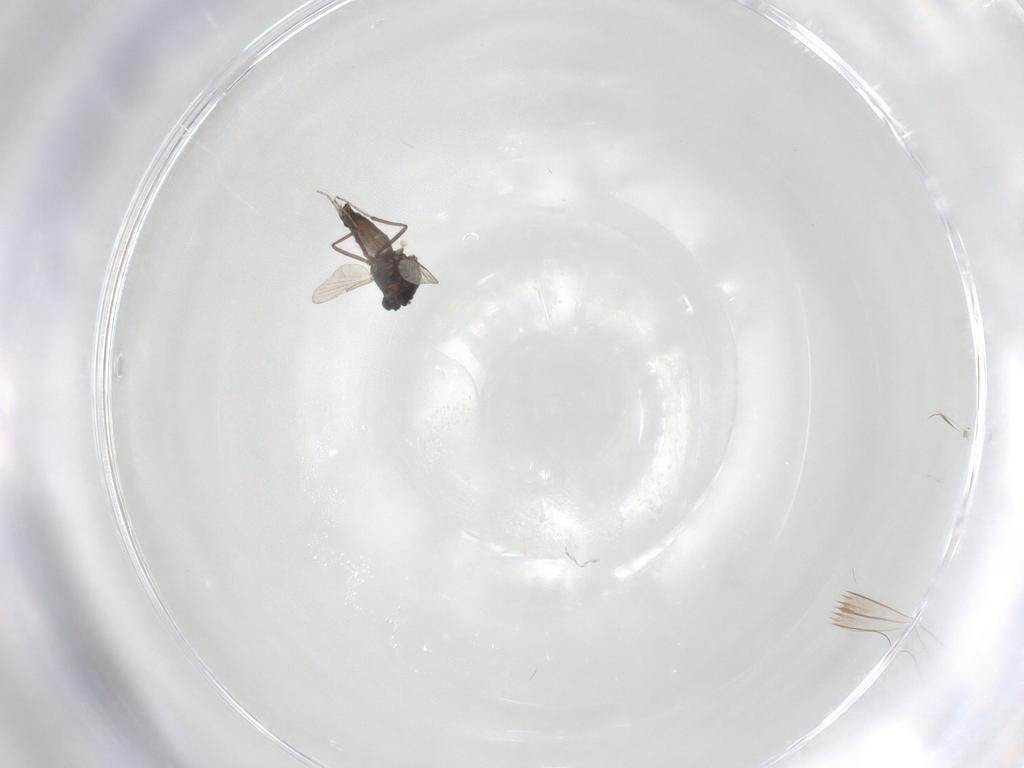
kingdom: Animalia
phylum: Arthropoda
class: Insecta
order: Diptera
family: Ceratopogonidae
